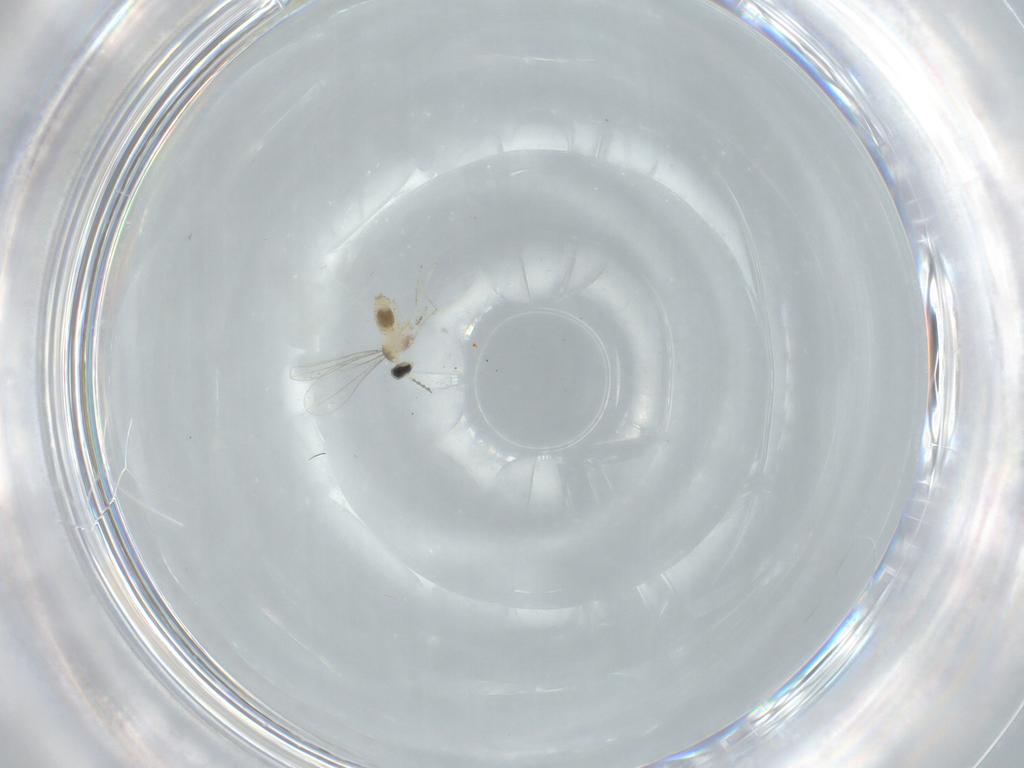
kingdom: Animalia
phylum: Arthropoda
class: Insecta
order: Diptera
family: Cecidomyiidae
